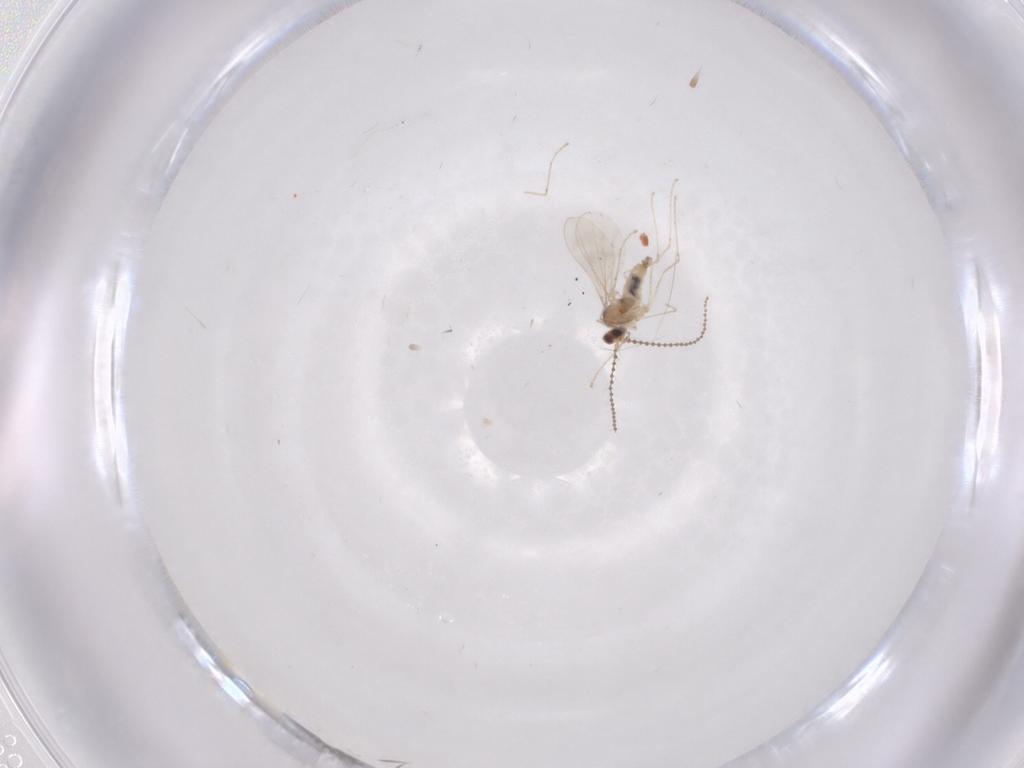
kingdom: Animalia
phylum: Arthropoda
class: Insecta
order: Diptera
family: Cecidomyiidae
